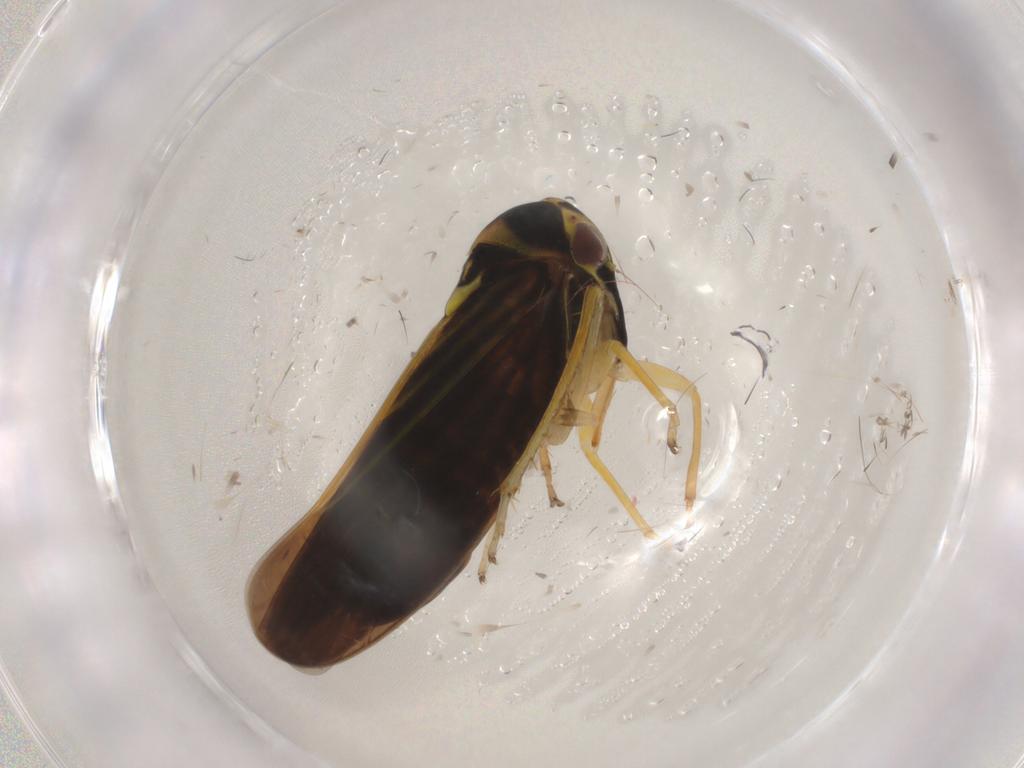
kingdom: Animalia
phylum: Arthropoda
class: Insecta
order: Hemiptera
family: Cicadellidae
